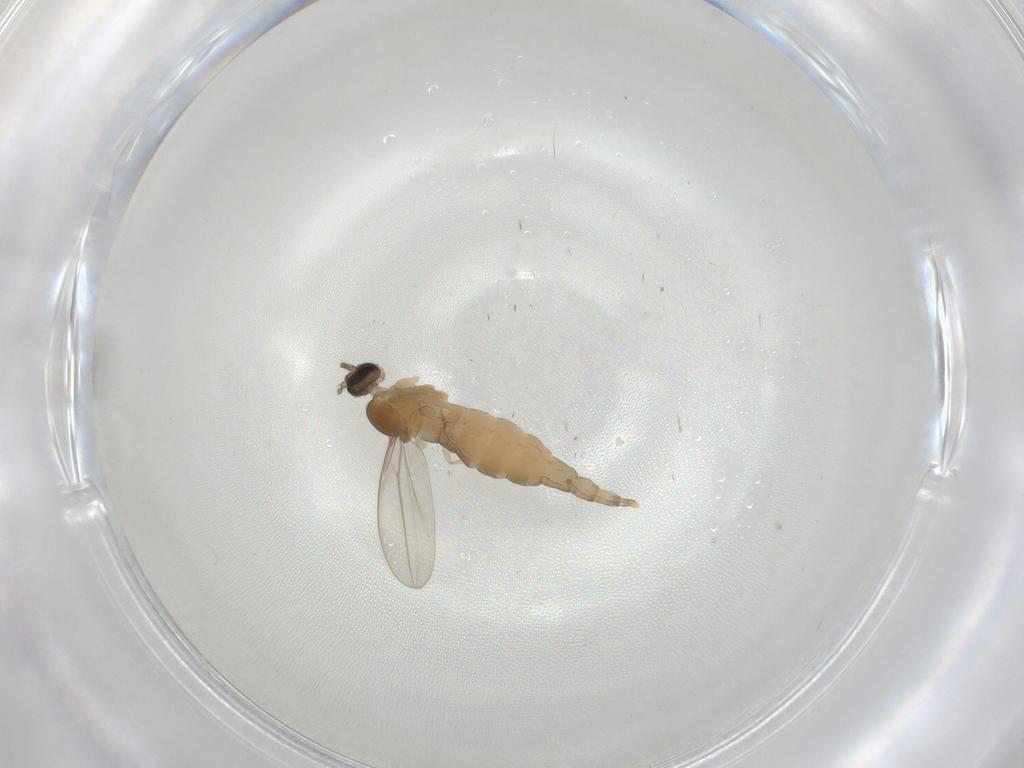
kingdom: Animalia
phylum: Arthropoda
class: Insecta
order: Diptera
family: Cecidomyiidae
